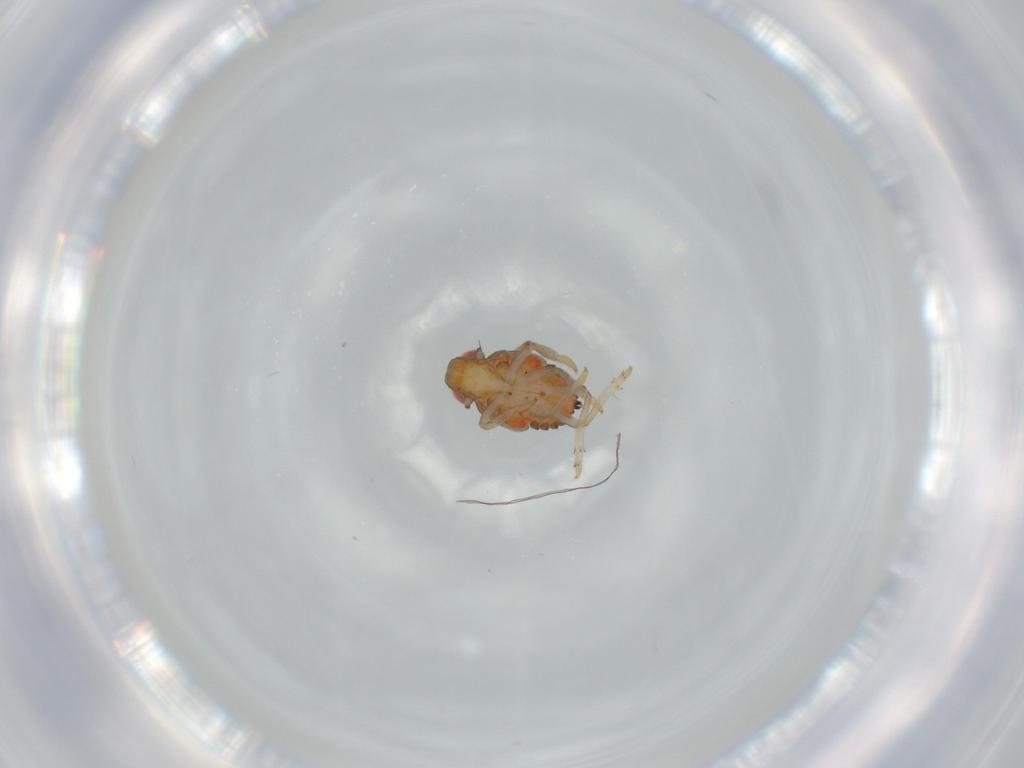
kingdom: Animalia
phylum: Arthropoda
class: Insecta
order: Hemiptera
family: Issidae
